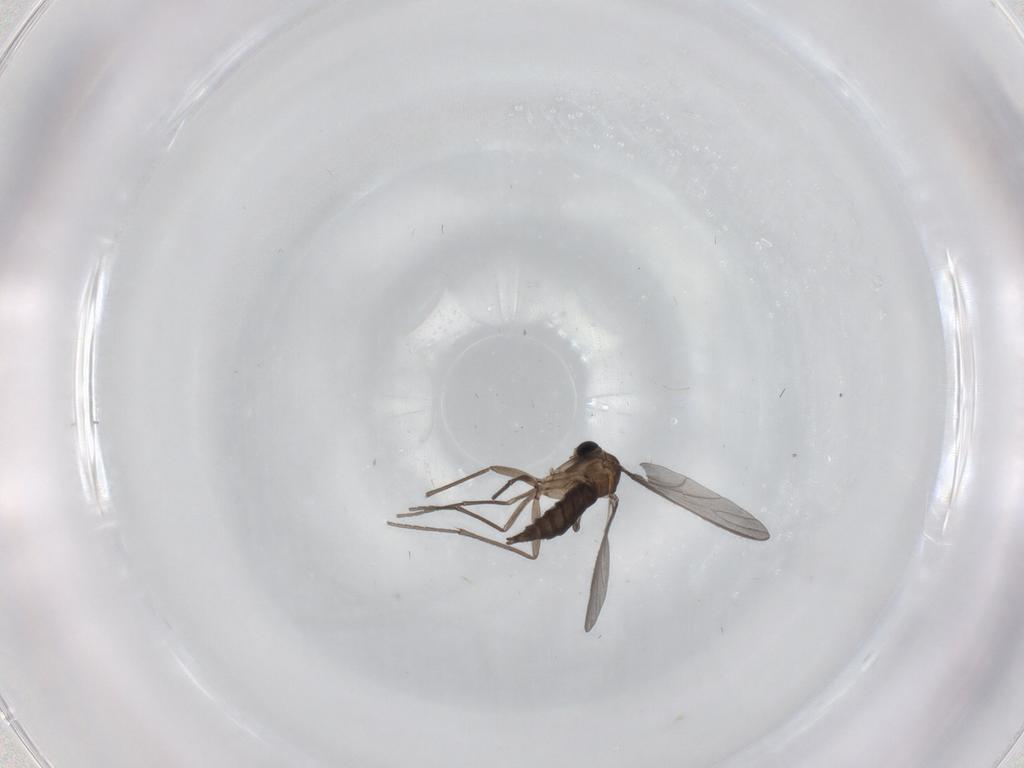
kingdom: Animalia
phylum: Arthropoda
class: Insecta
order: Diptera
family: Sciaridae
